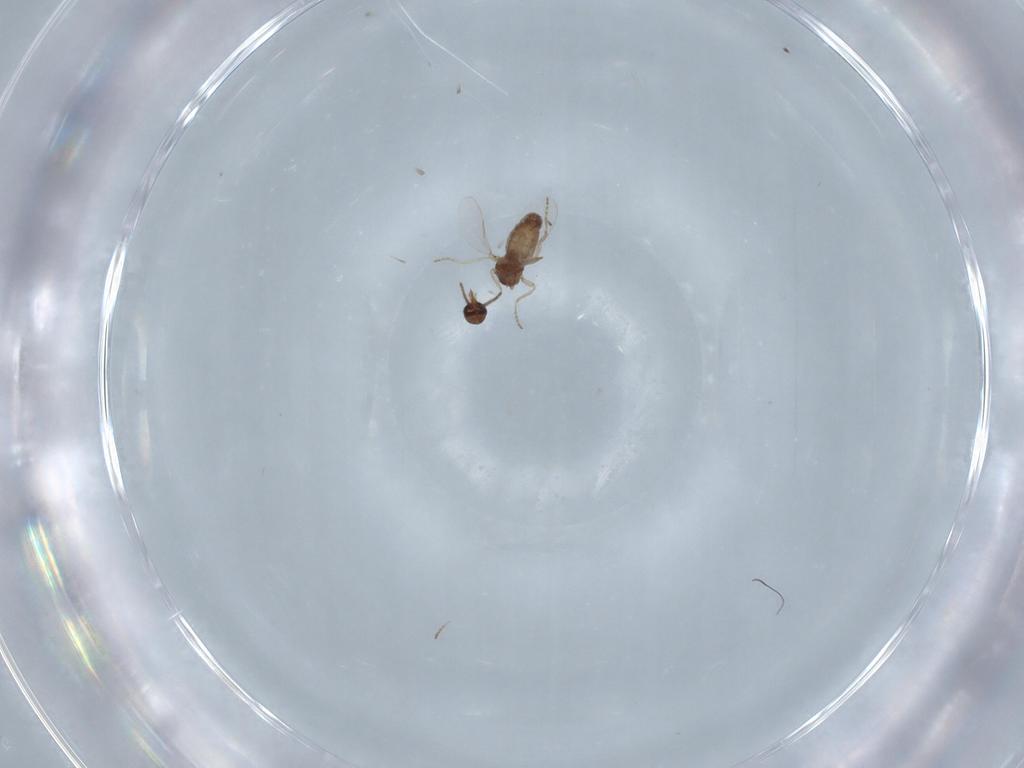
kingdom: Animalia
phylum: Arthropoda
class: Insecta
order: Diptera
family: Ceratopogonidae
